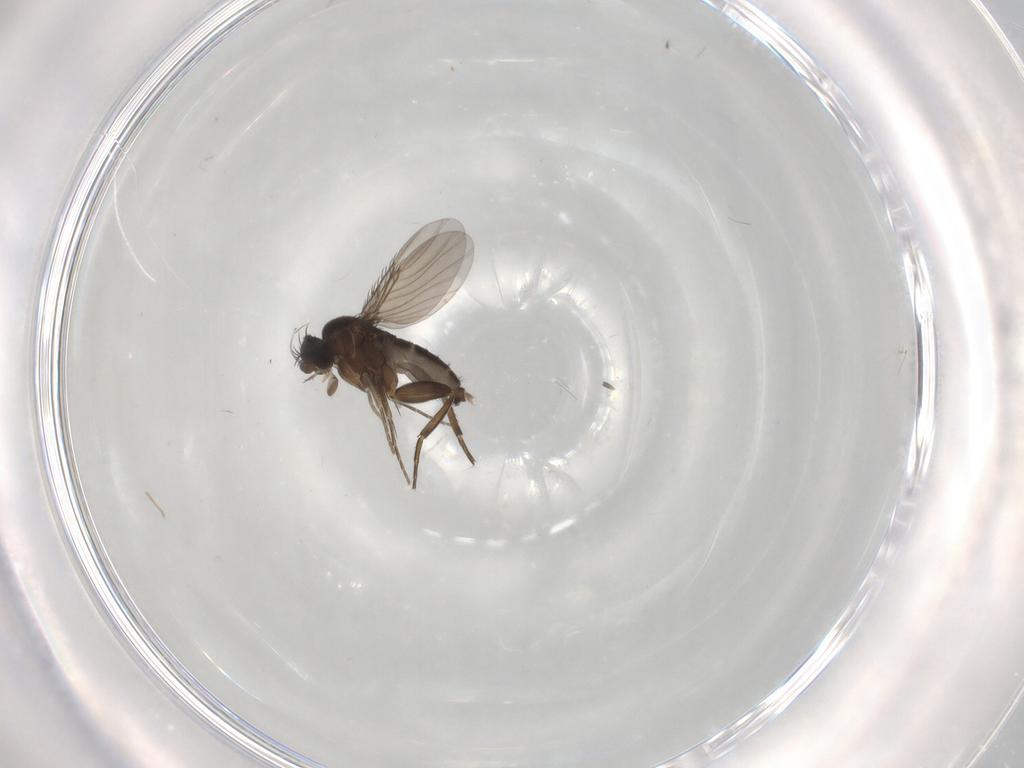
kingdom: Animalia
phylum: Arthropoda
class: Insecta
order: Diptera
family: Phoridae
